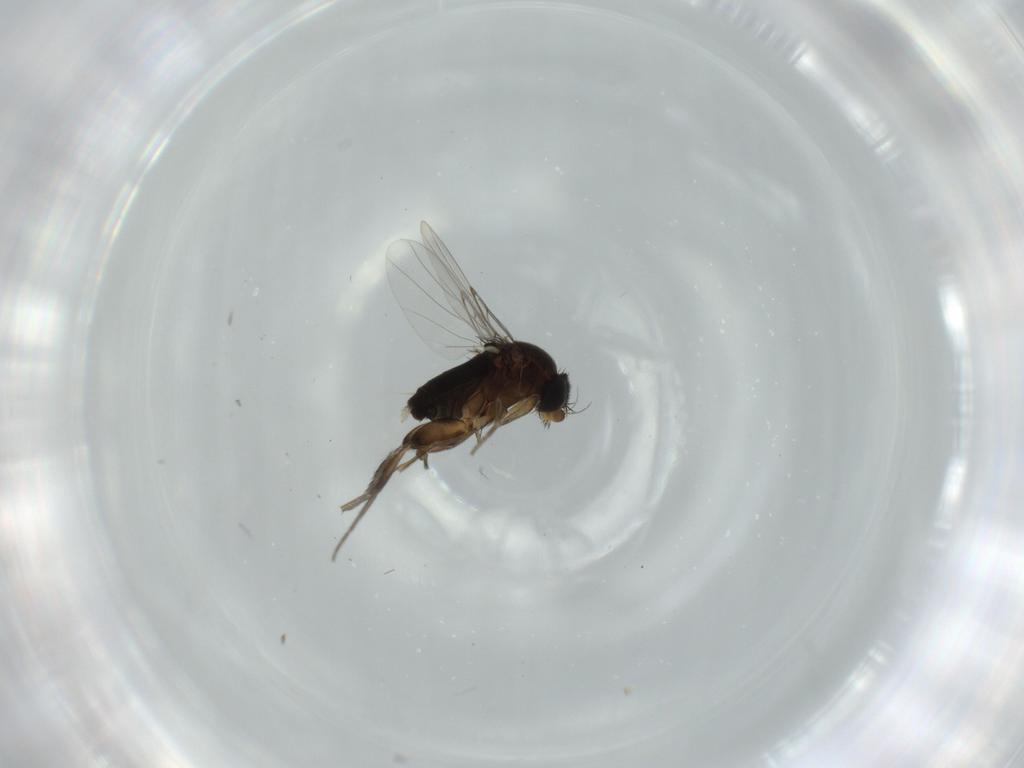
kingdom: Animalia
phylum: Arthropoda
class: Insecta
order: Diptera
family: Phoridae
